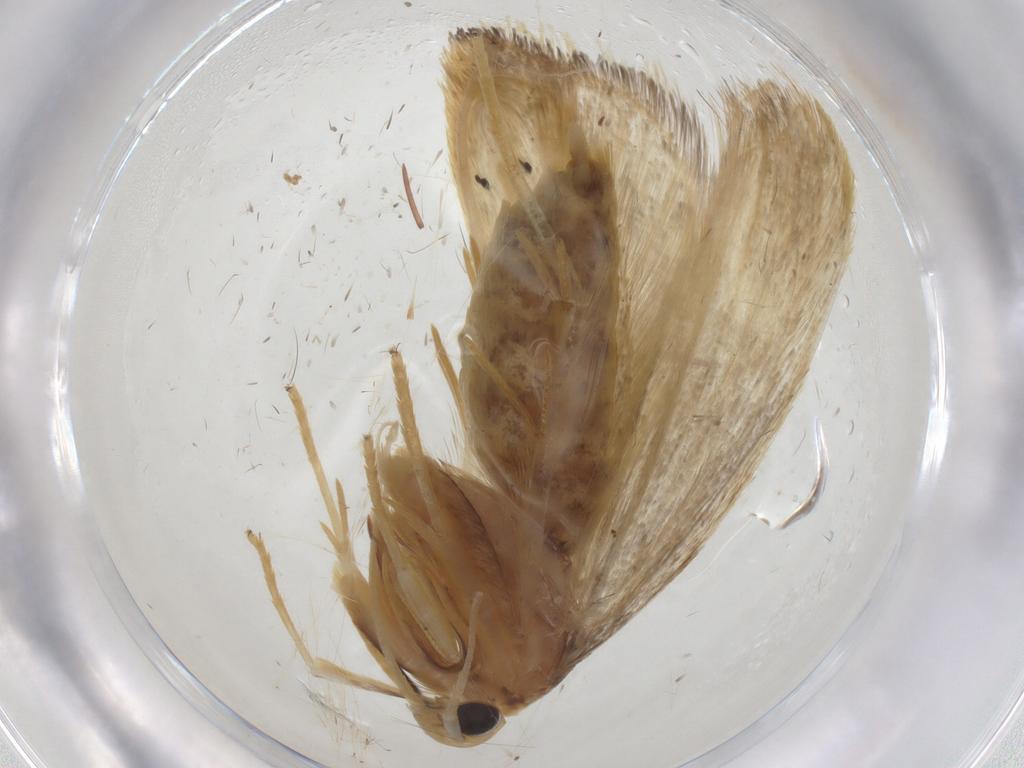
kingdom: Animalia
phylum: Arthropoda
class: Insecta
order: Lepidoptera
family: Lecithoceridae
